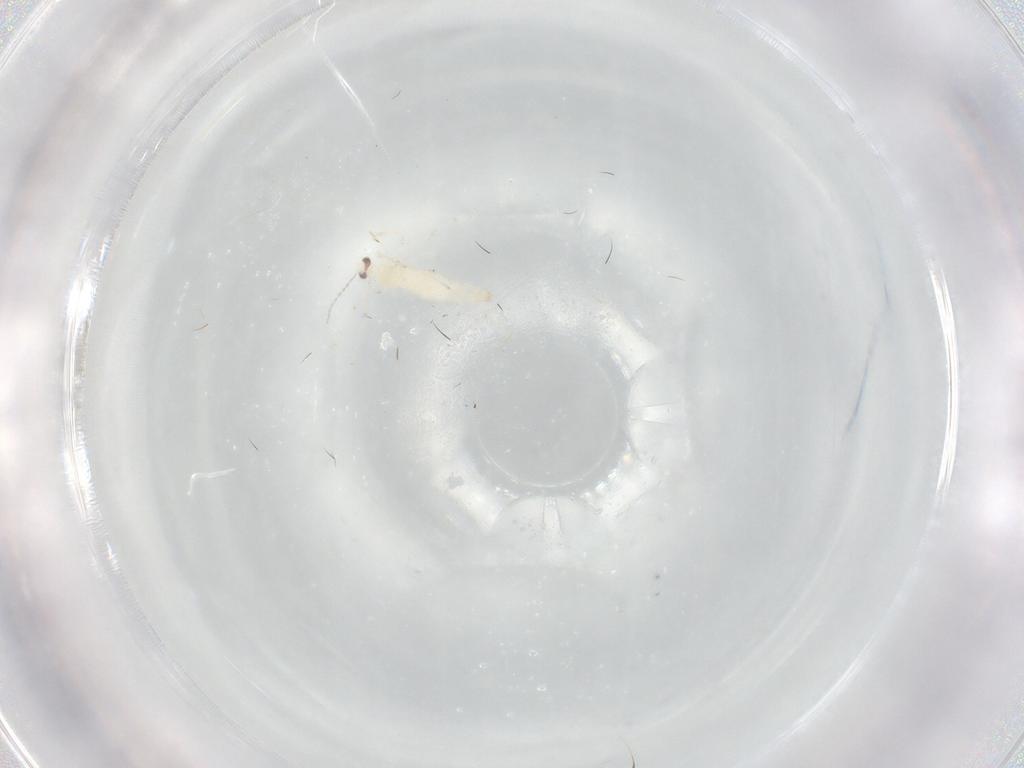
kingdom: Animalia
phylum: Arthropoda
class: Insecta
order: Diptera
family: Cecidomyiidae
